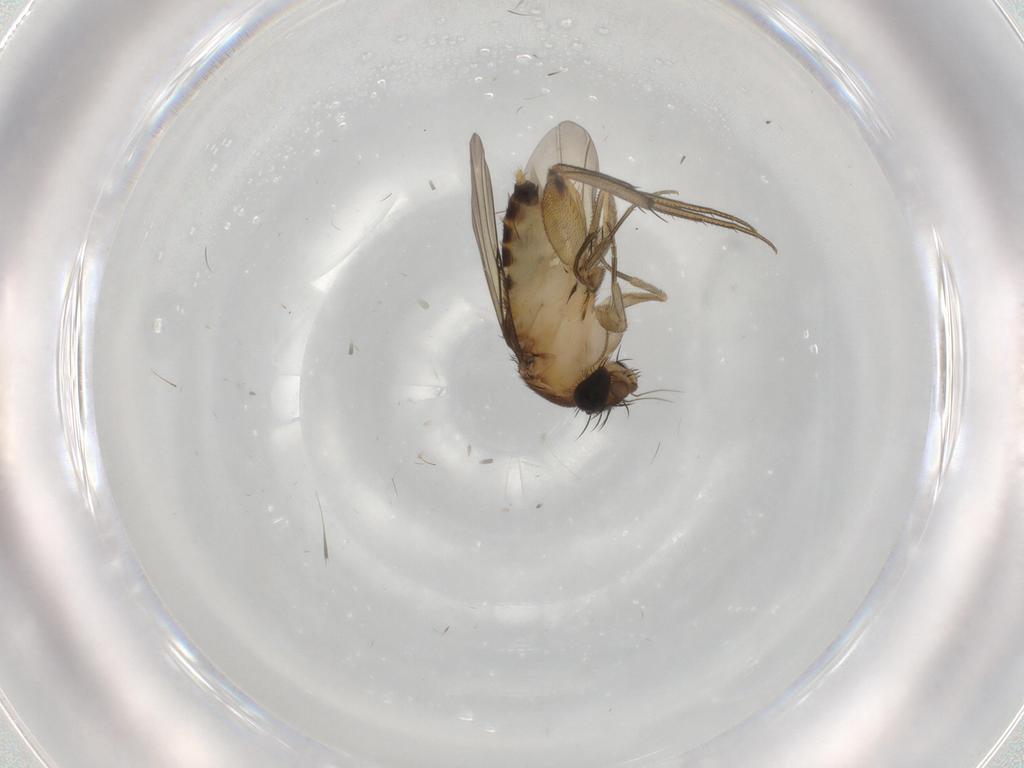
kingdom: Animalia
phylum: Arthropoda
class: Insecta
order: Diptera
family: Phoridae
